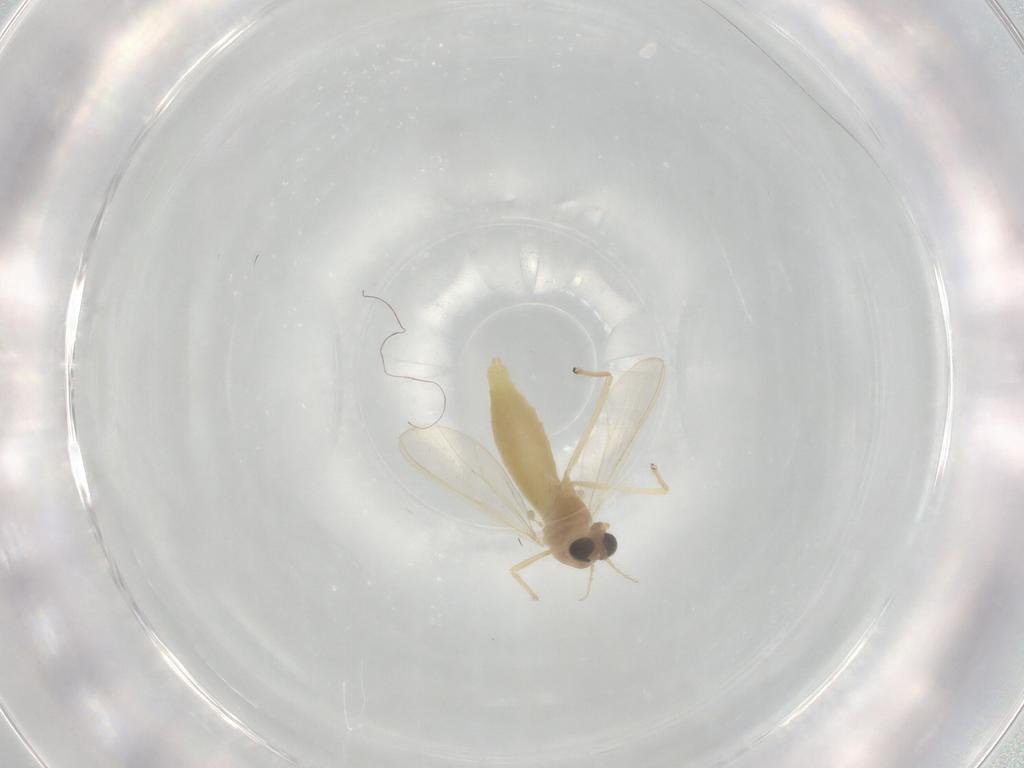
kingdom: Animalia
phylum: Arthropoda
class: Insecta
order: Diptera
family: Chironomidae
